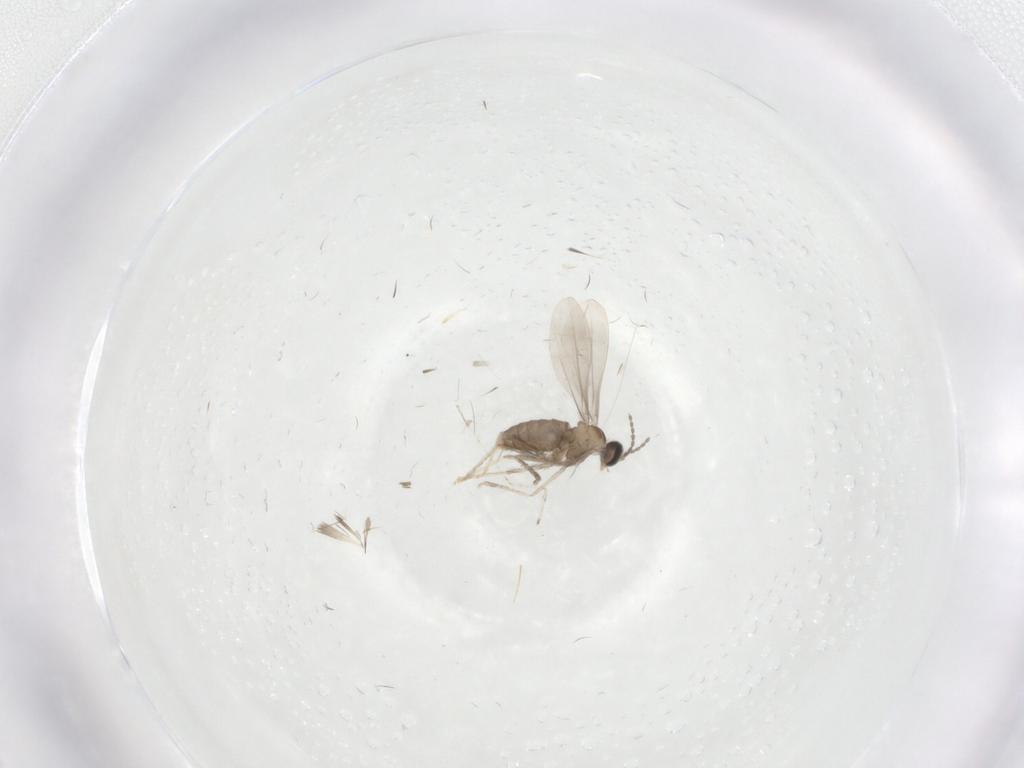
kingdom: Animalia
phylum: Arthropoda
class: Insecta
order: Diptera
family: Cecidomyiidae
